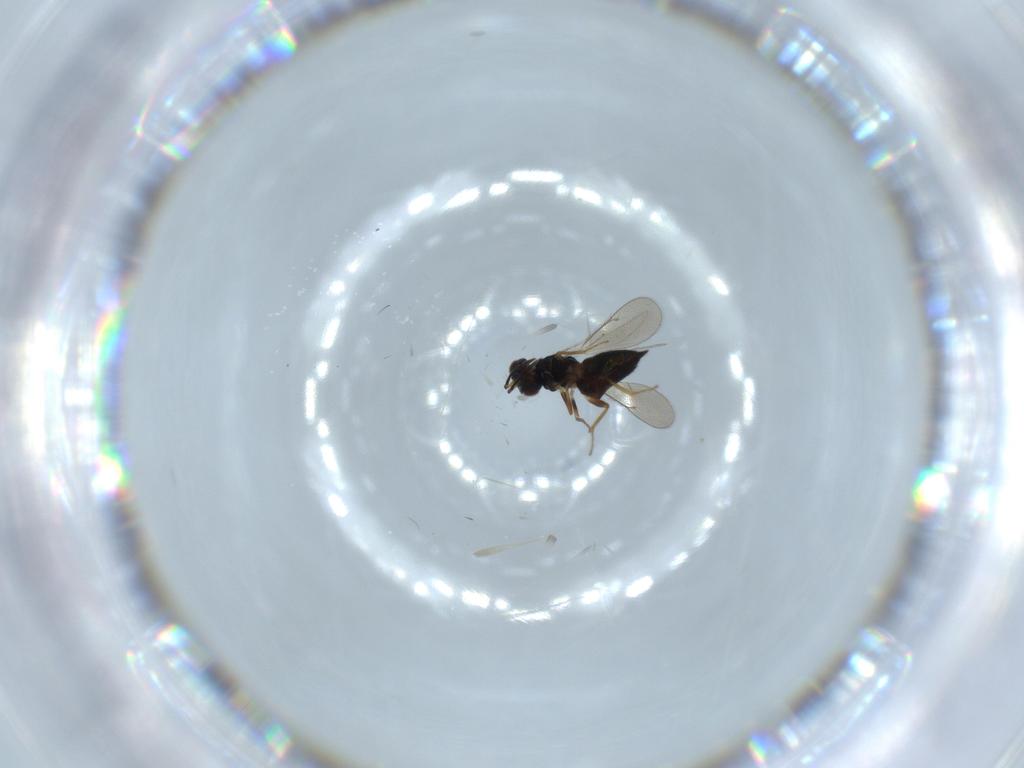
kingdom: Animalia
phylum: Arthropoda
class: Insecta
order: Hymenoptera
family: Eulophidae
